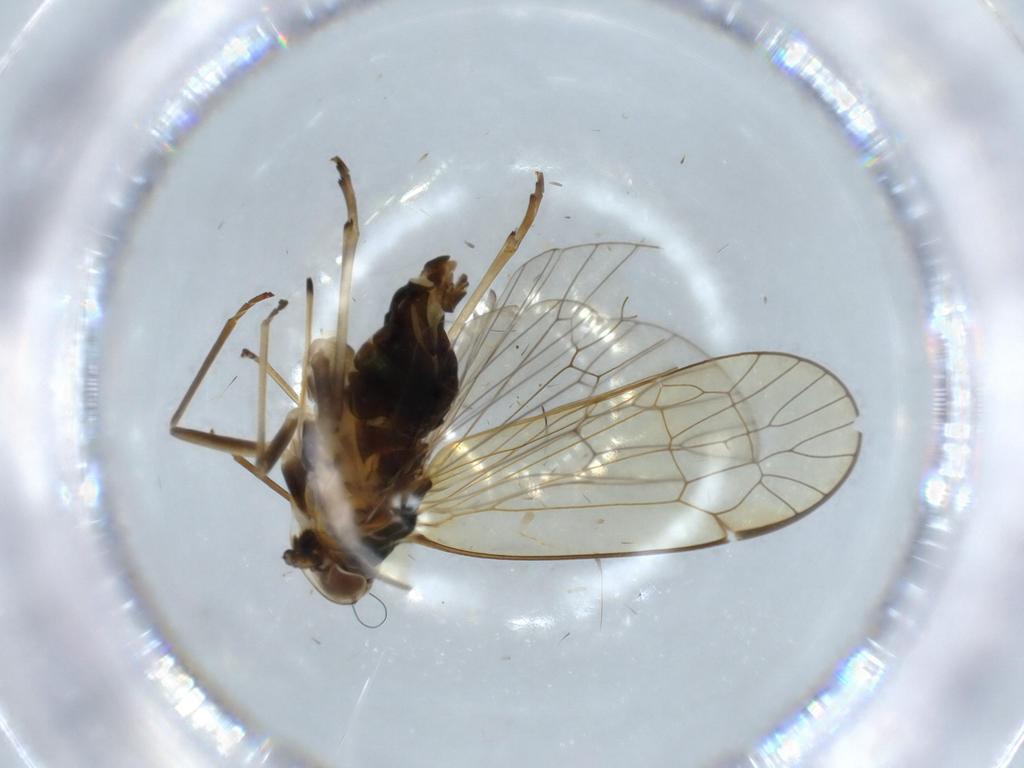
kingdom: Animalia
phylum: Arthropoda
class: Insecta
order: Hemiptera
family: Kinnaridae
